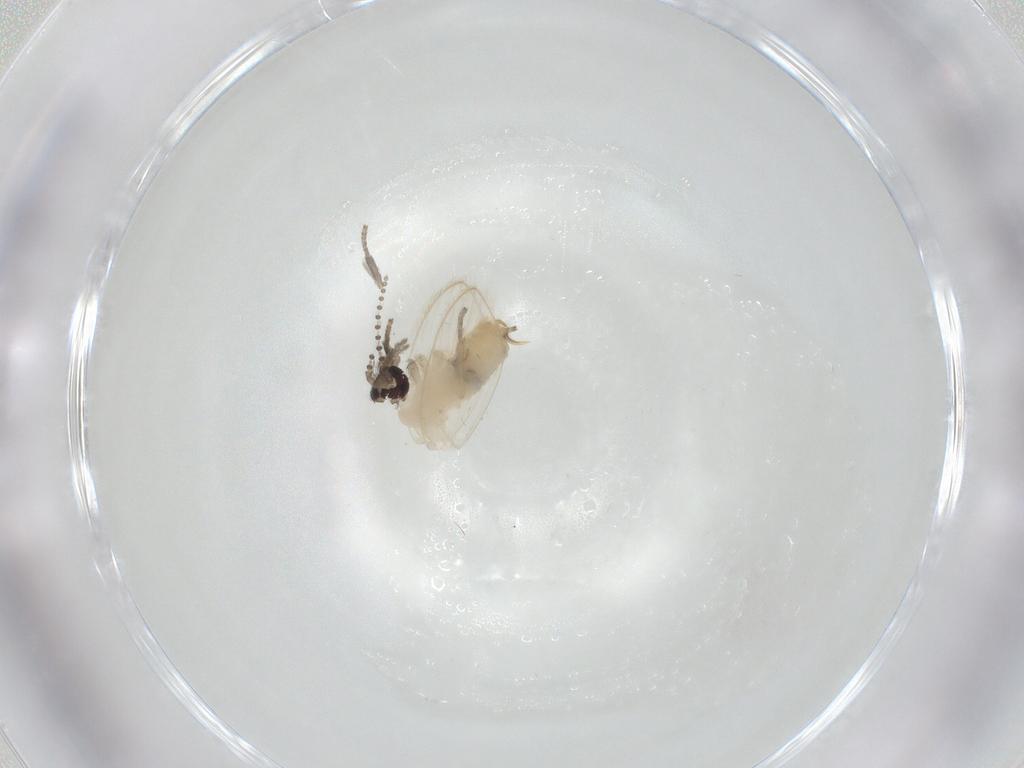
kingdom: Animalia
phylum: Arthropoda
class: Insecta
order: Diptera
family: Psychodidae
